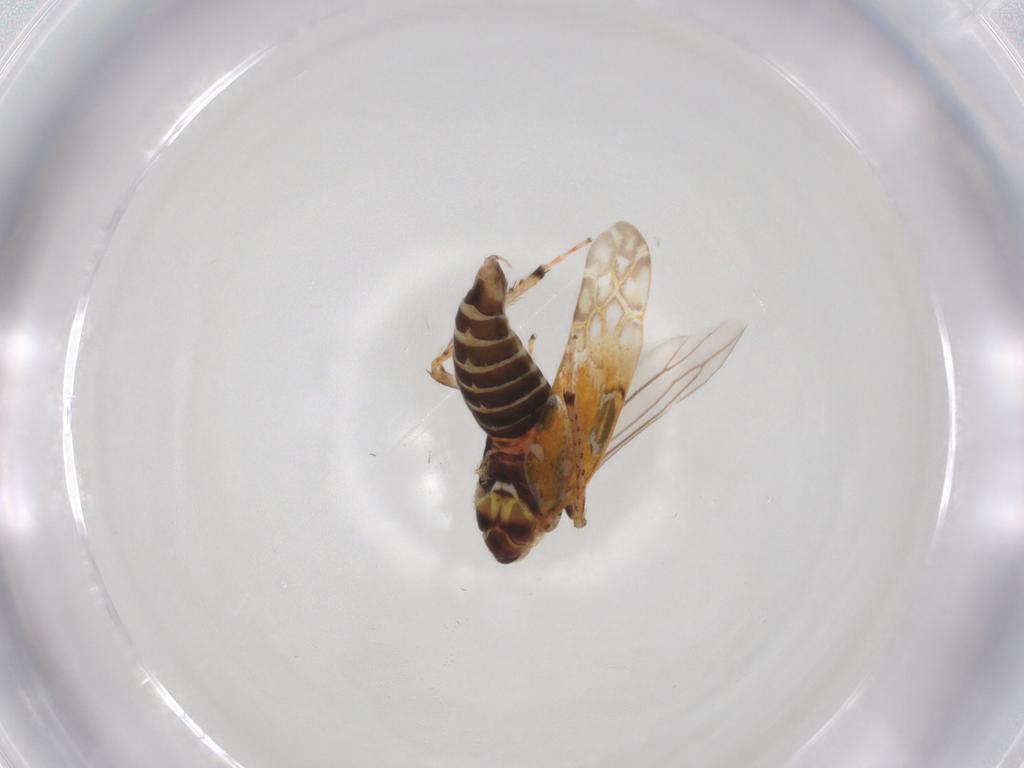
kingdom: Animalia
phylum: Arthropoda
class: Insecta
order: Hemiptera
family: Cicadellidae
